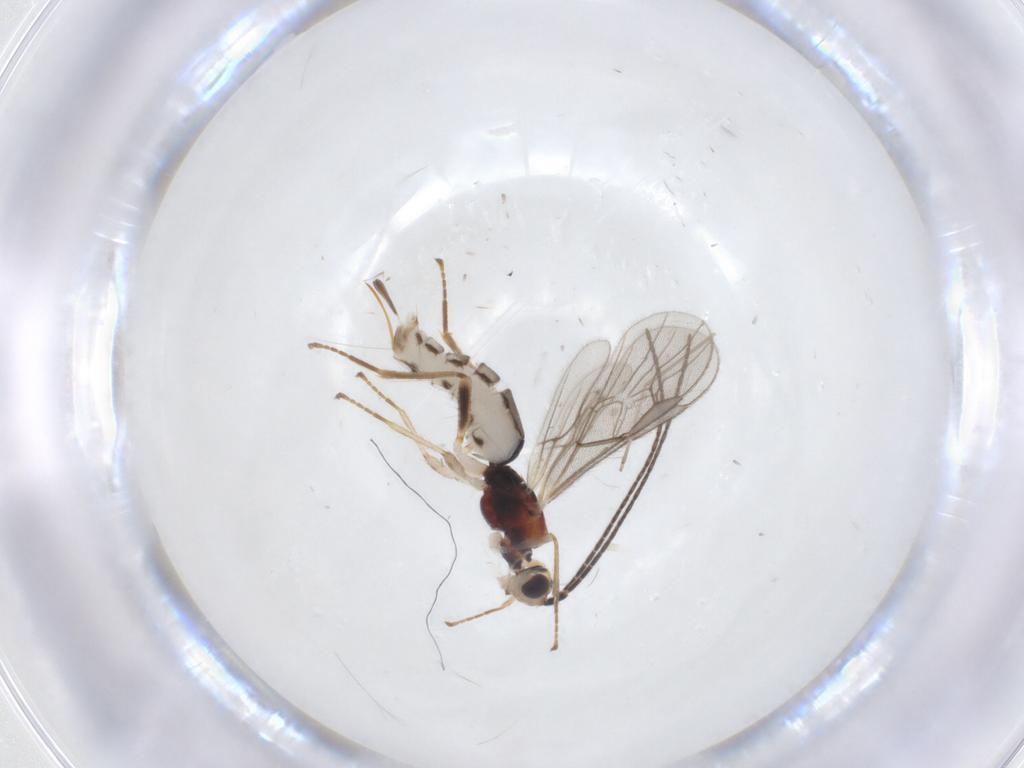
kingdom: Animalia
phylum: Arthropoda
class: Insecta
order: Hymenoptera
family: Braconidae
